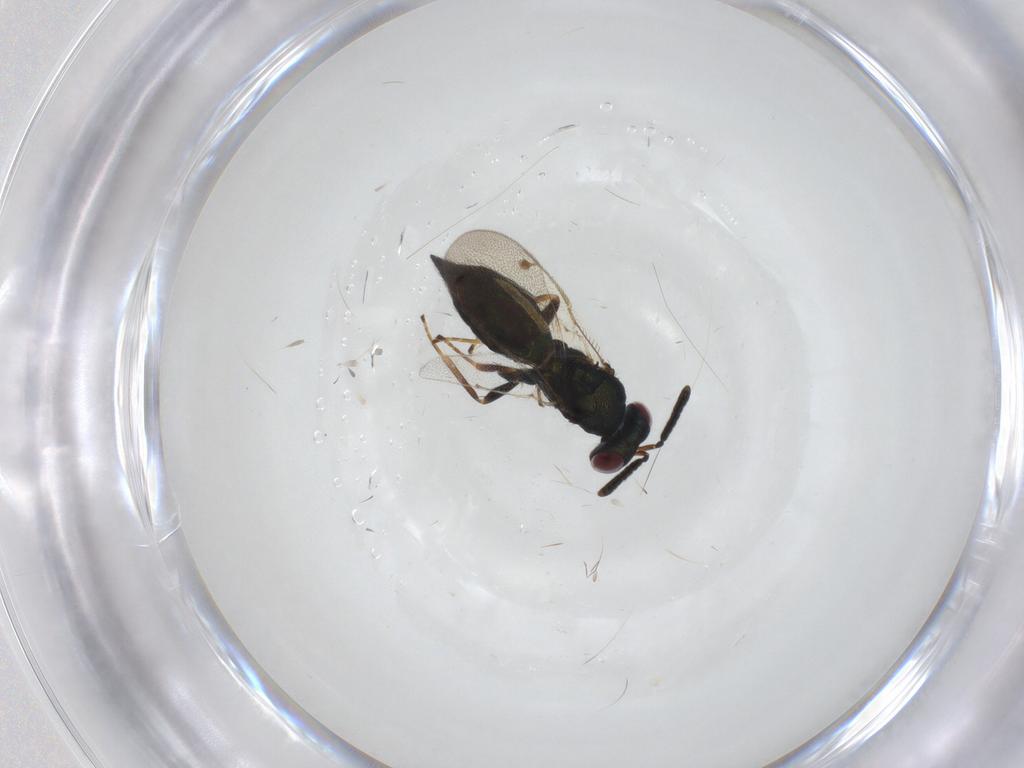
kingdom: Animalia
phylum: Arthropoda
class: Insecta
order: Hymenoptera
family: Pteromalidae
